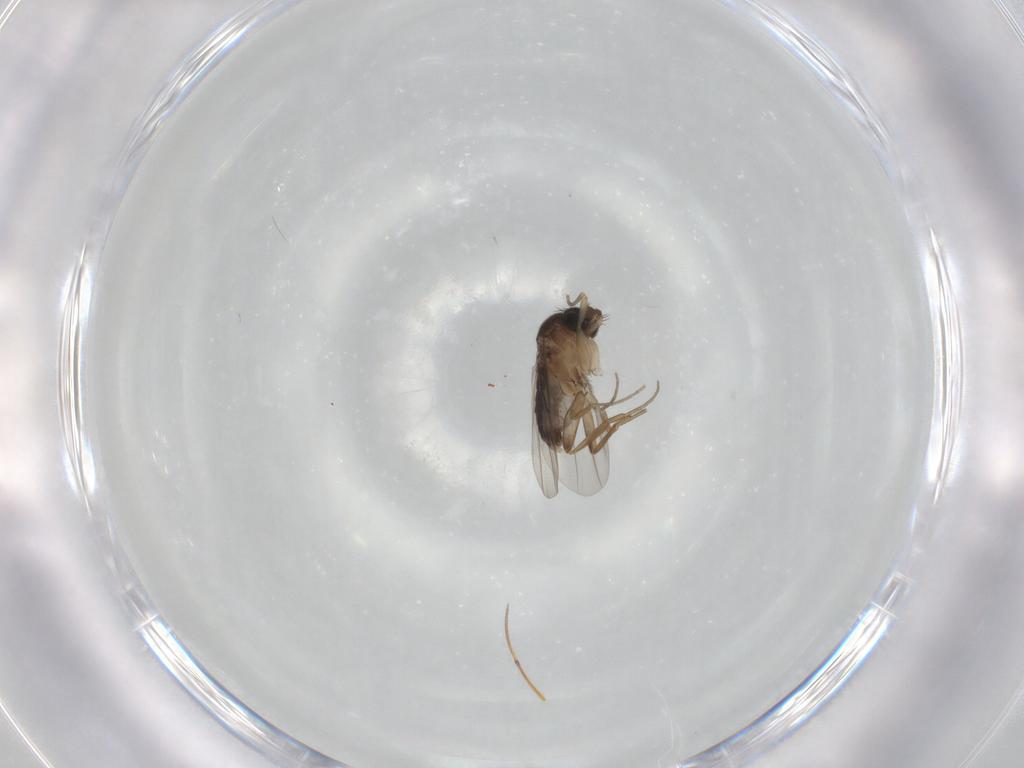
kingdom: Animalia
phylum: Arthropoda
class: Insecta
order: Diptera
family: Phoridae
